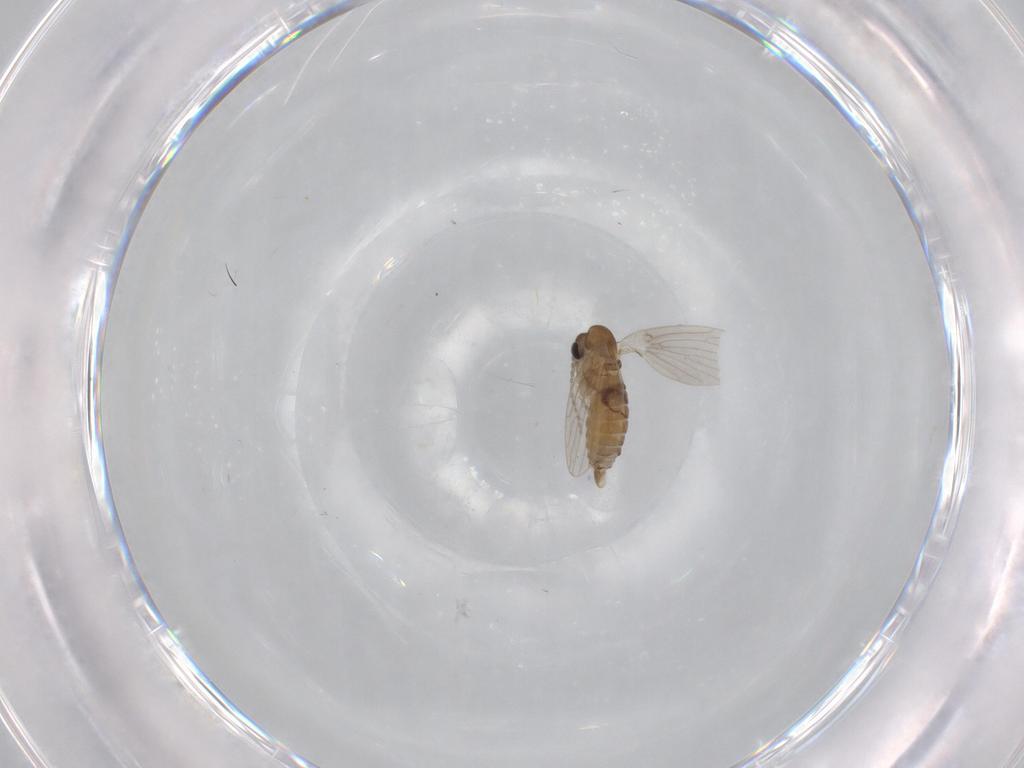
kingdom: Animalia
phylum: Arthropoda
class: Insecta
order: Diptera
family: Psychodidae
